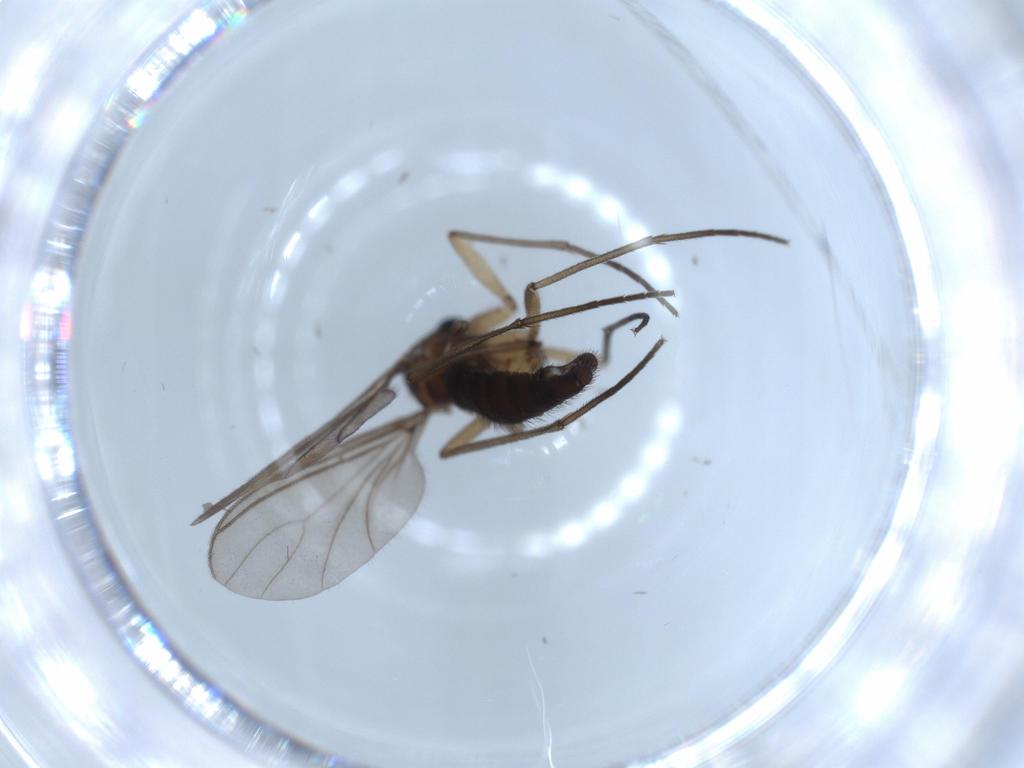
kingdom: Animalia
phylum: Arthropoda
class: Insecta
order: Diptera
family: Sciaridae
